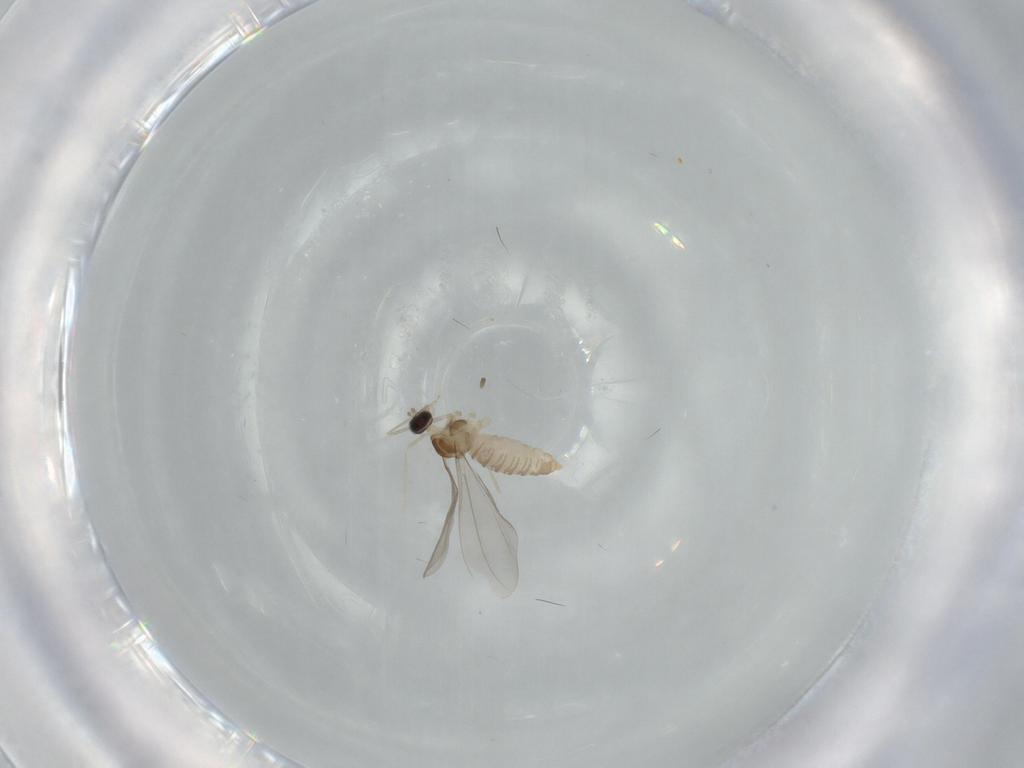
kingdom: Animalia
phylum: Arthropoda
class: Insecta
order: Diptera
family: Cecidomyiidae
